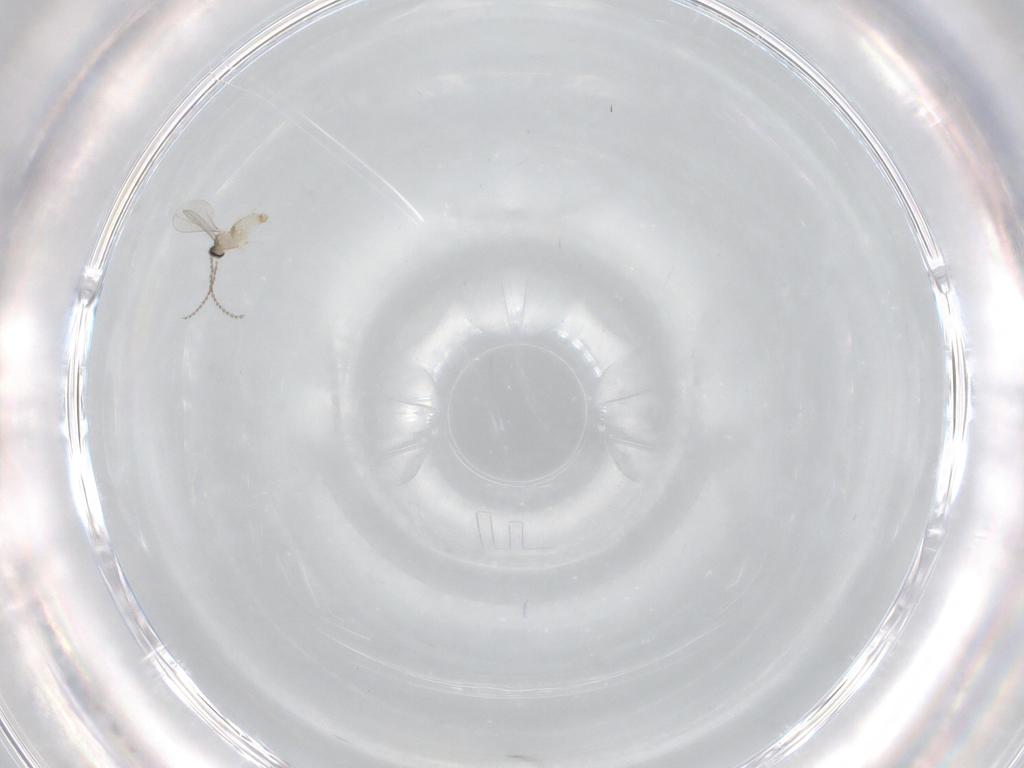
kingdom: Animalia
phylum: Arthropoda
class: Insecta
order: Diptera
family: Cecidomyiidae
